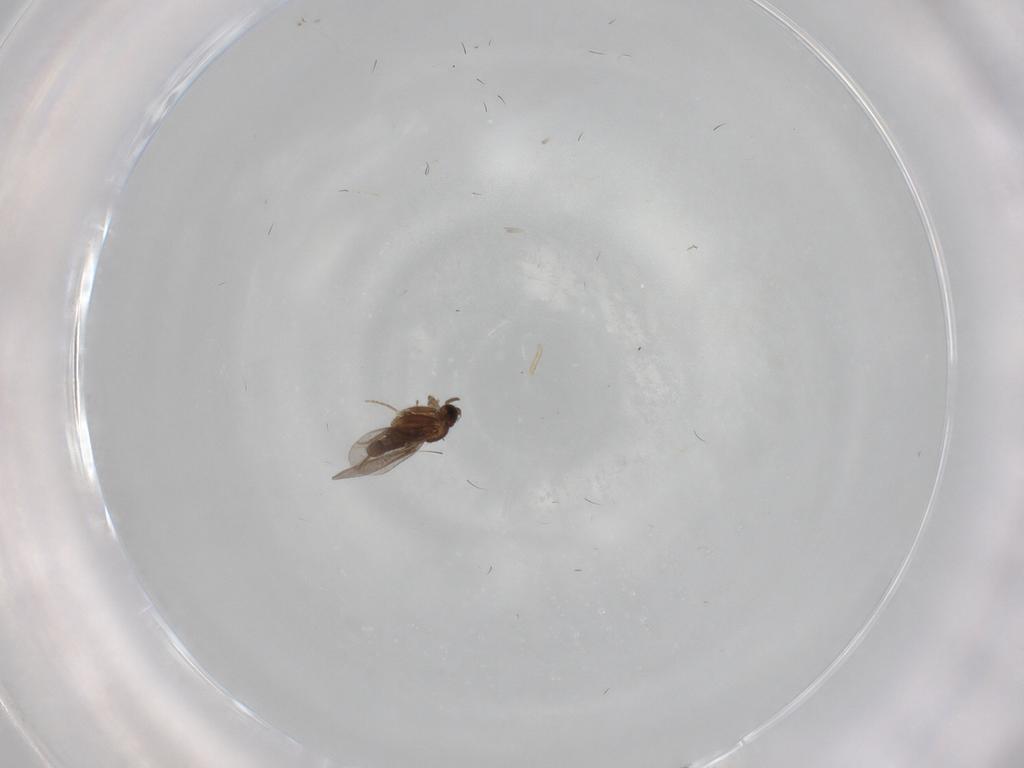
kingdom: Animalia
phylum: Arthropoda
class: Insecta
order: Diptera
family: Tabanidae
